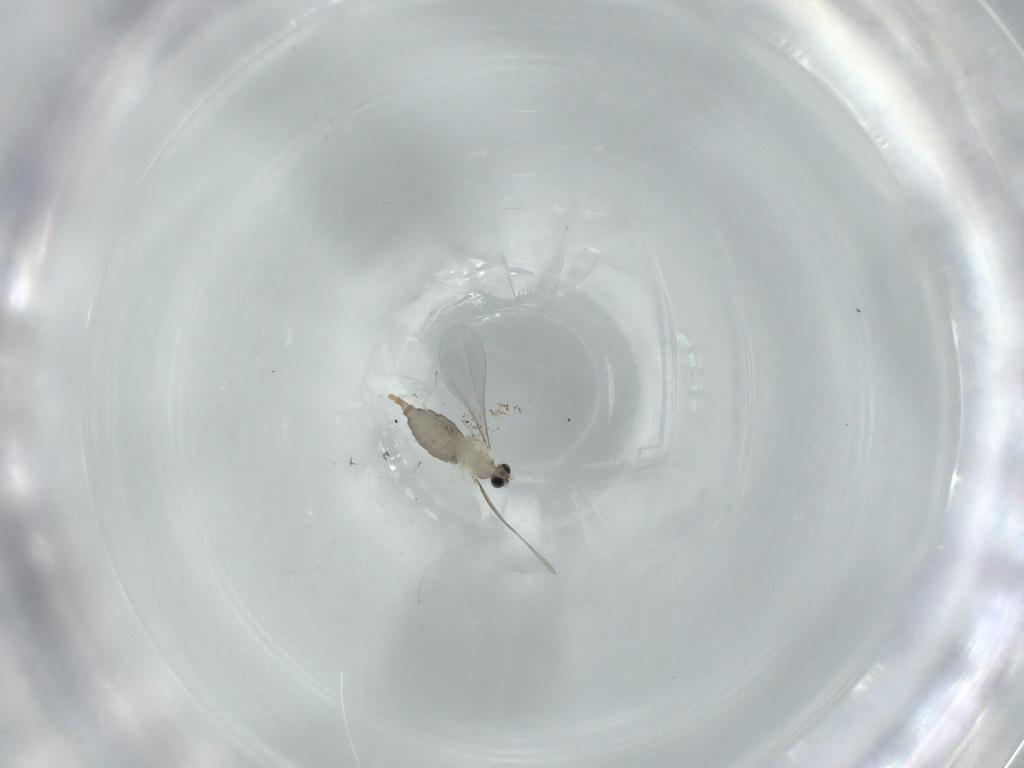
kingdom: Animalia
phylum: Arthropoda
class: Insecta
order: Diptera
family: Cecidomyiidae
